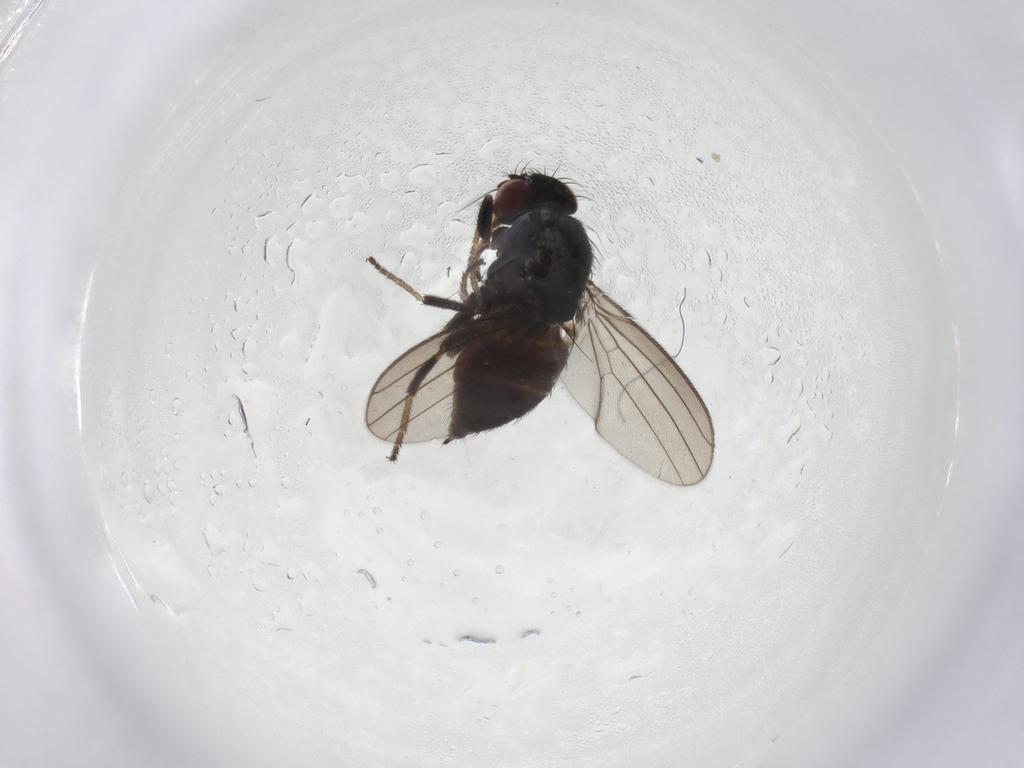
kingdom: Animalia
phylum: Arthropoda
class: Insecta
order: Diptera
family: Milichiidae
